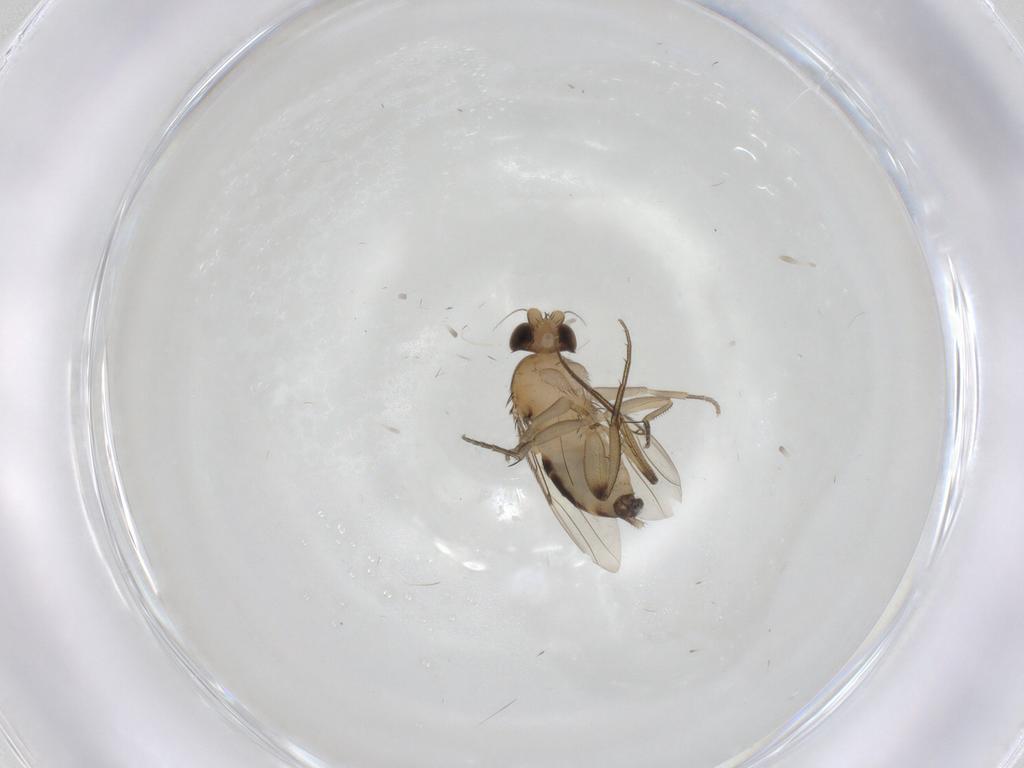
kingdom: Animalia
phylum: Arthropoda
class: Insecta
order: Diptera
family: Phoridae
